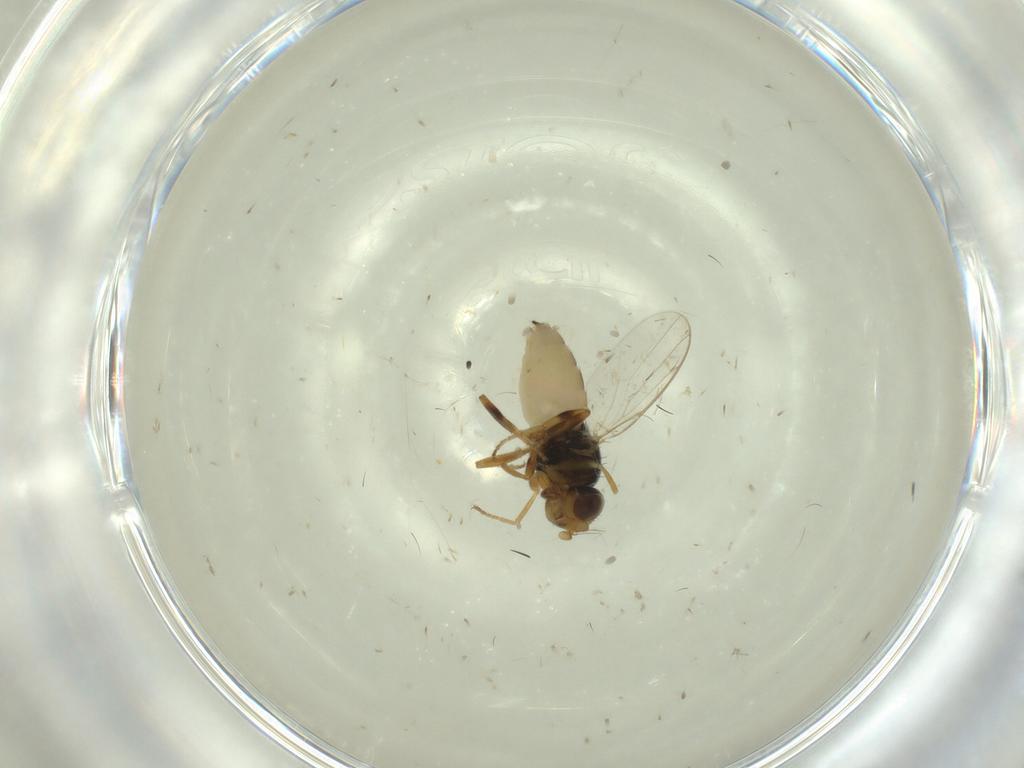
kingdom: Animalia
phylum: Arthropoda
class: Insecta
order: Diptera
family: Chloropidae
